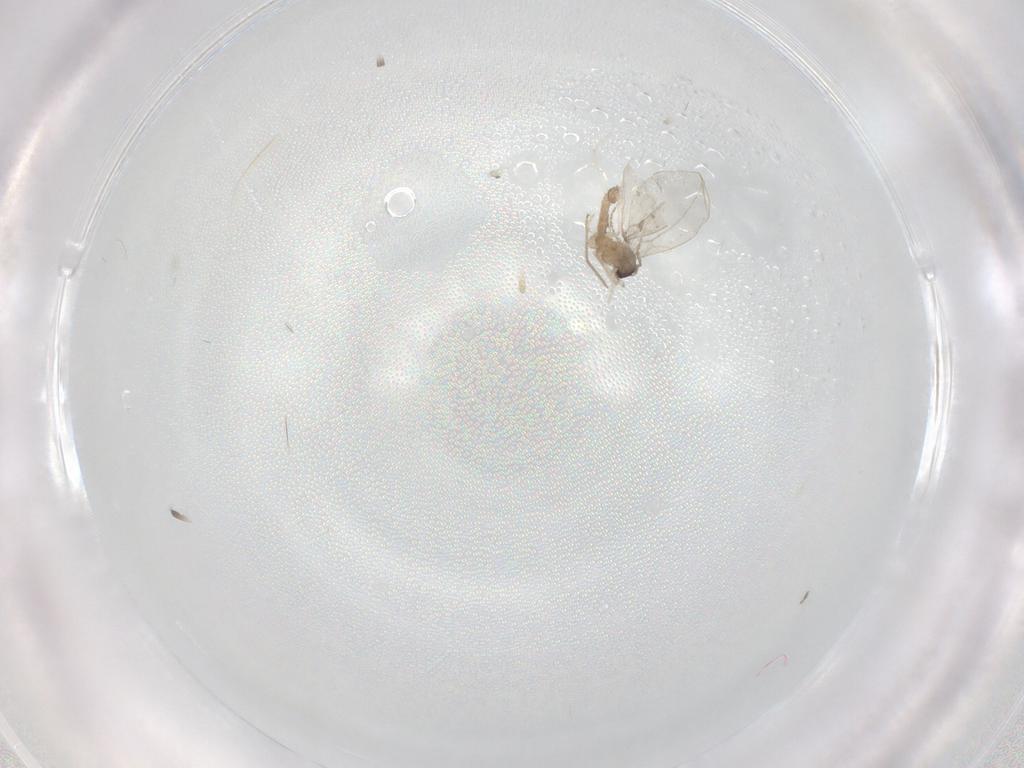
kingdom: Animalia
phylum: Arthropoda
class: Insecta
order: Diptera
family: Cecidomyiidae
